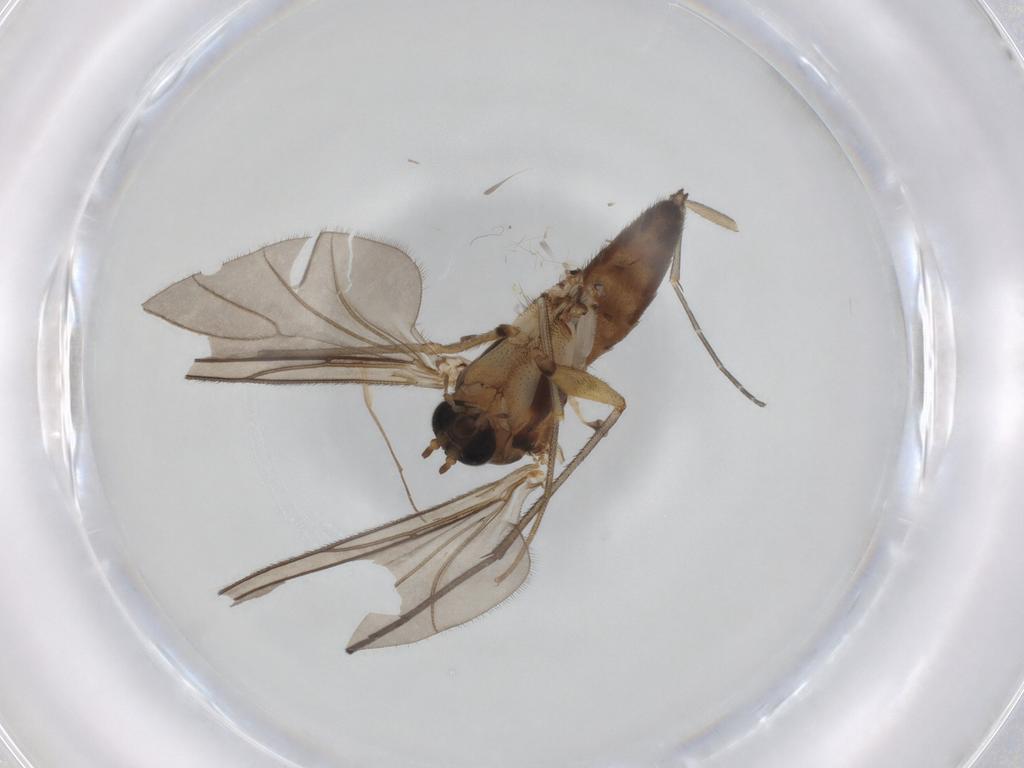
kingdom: Animalia
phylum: Arthropoda
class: Insecta
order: Diptera
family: Sciaridae
